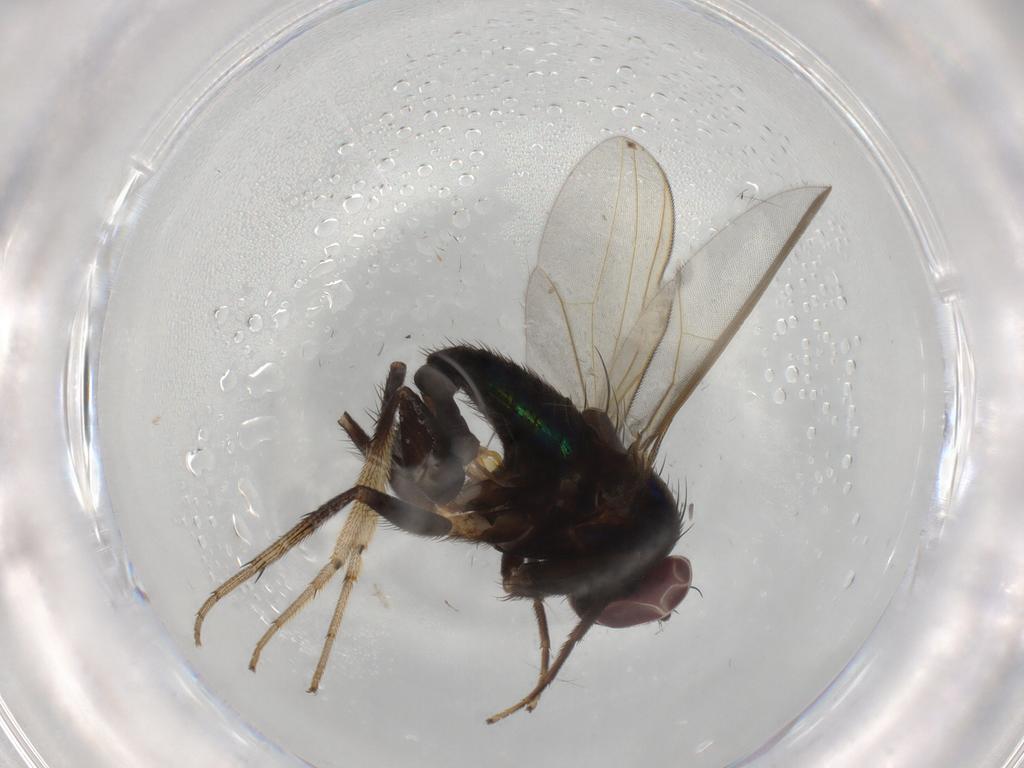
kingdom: Animalia
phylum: Arthropoda
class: Insecta
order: Diptera
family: Dolichopodidae
